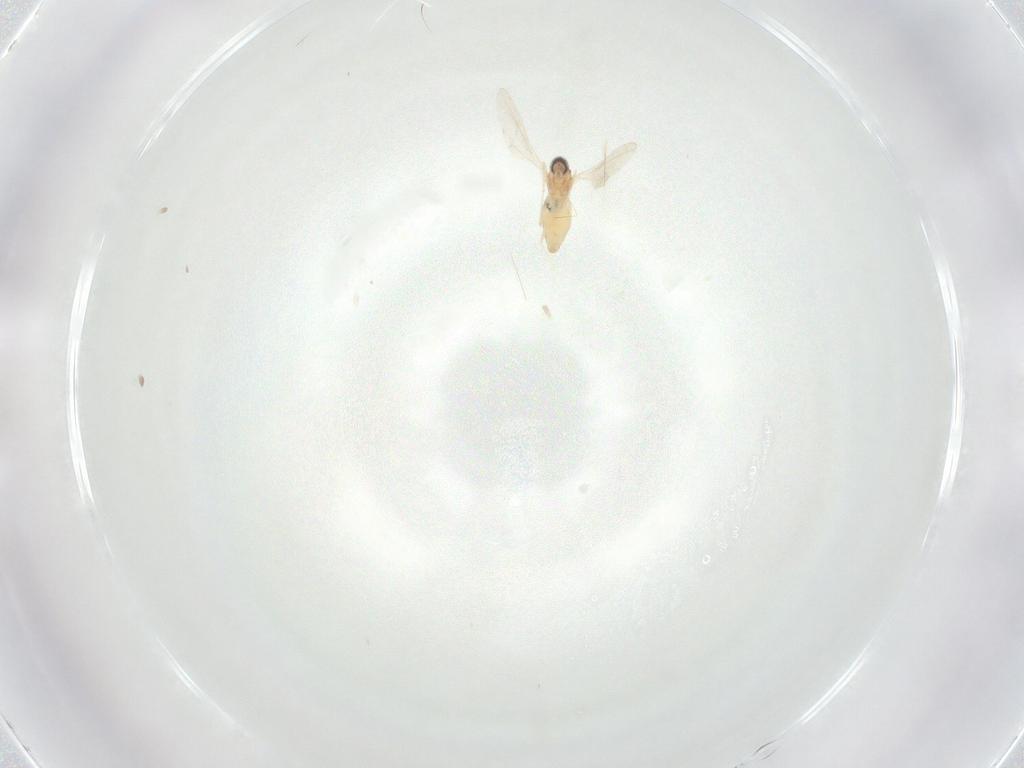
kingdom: Animalia
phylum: Arthropoda
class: Insecta
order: Diptera
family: Cecidomyiidae
